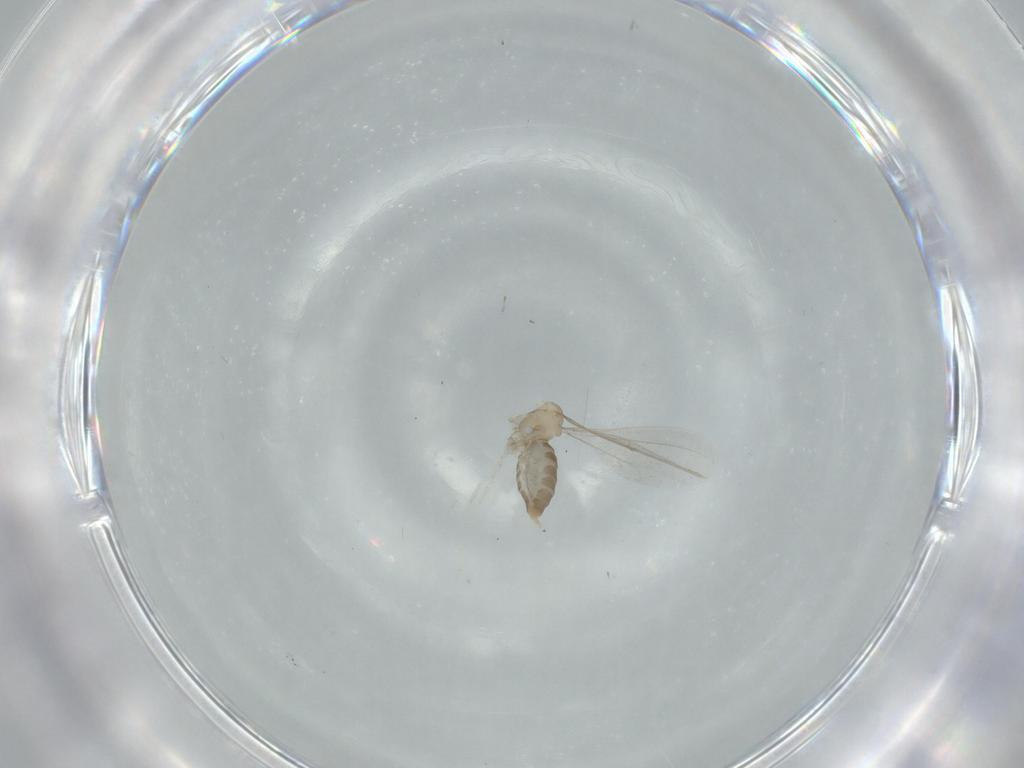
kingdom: Animalia
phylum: Arthropoda
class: Insecta
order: Diptera
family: Cecidomyiidae
